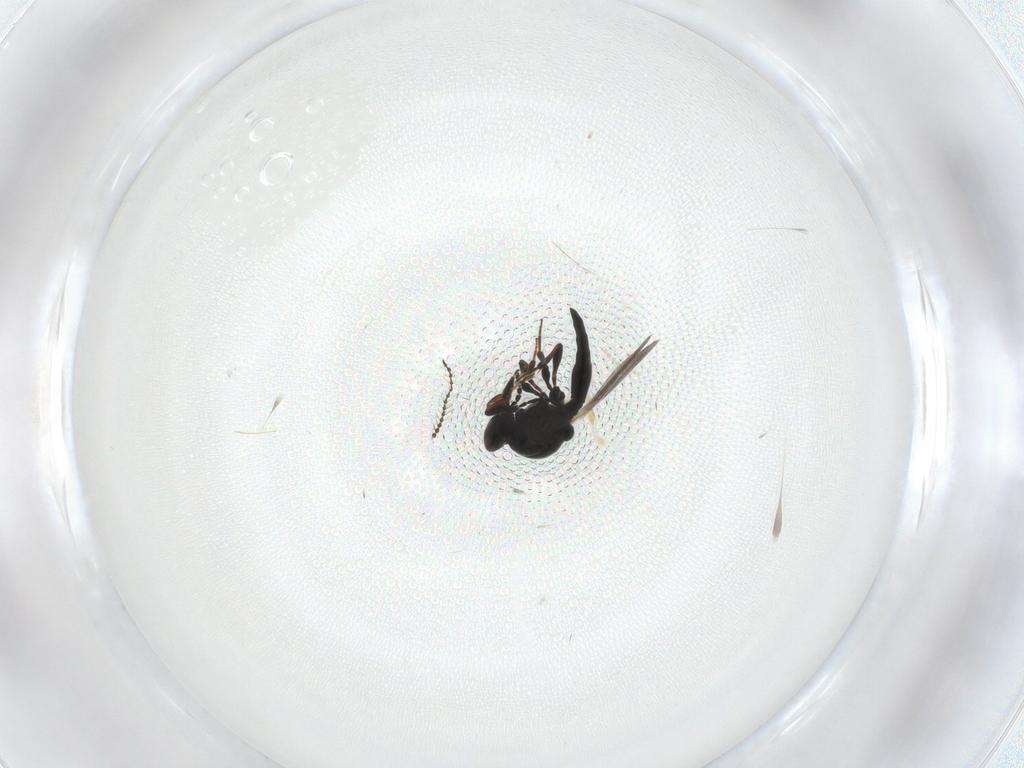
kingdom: Animalia
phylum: Arthropoda
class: Insecta
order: Hymenoptera
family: Platygastridae
